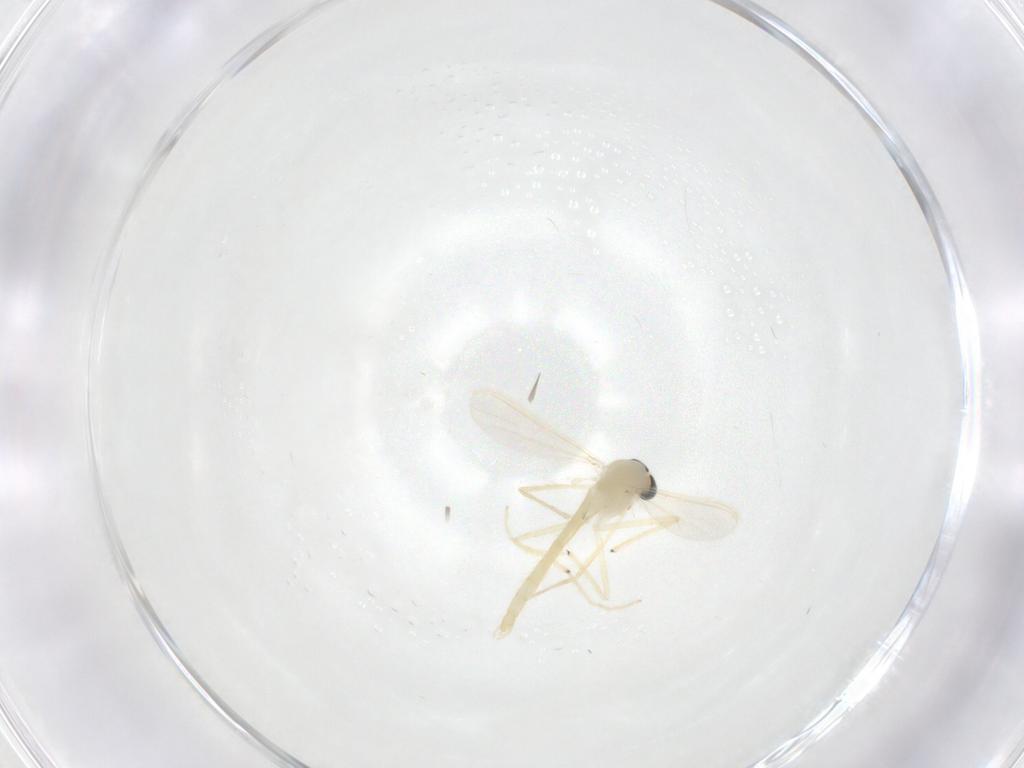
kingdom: Animalia
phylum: Arthropoda
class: Insecta
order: Diptera
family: Chironomidae
